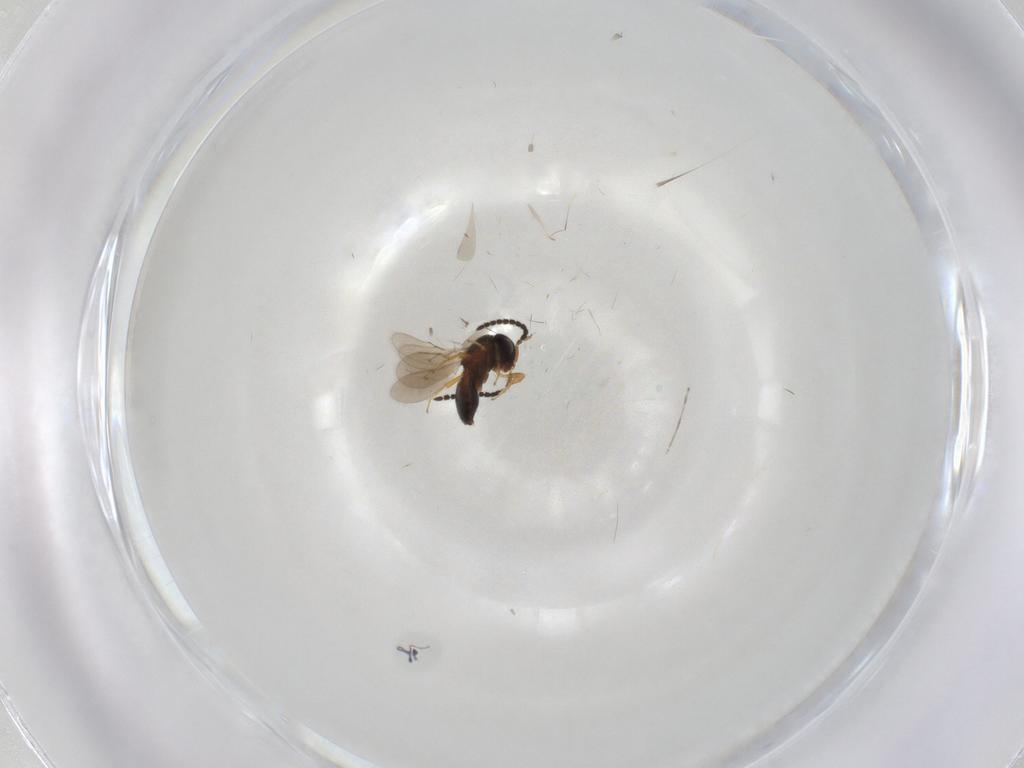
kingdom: Animalia
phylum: Arthropoda
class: Insecta
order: Hymenoptera
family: Scelionidae
